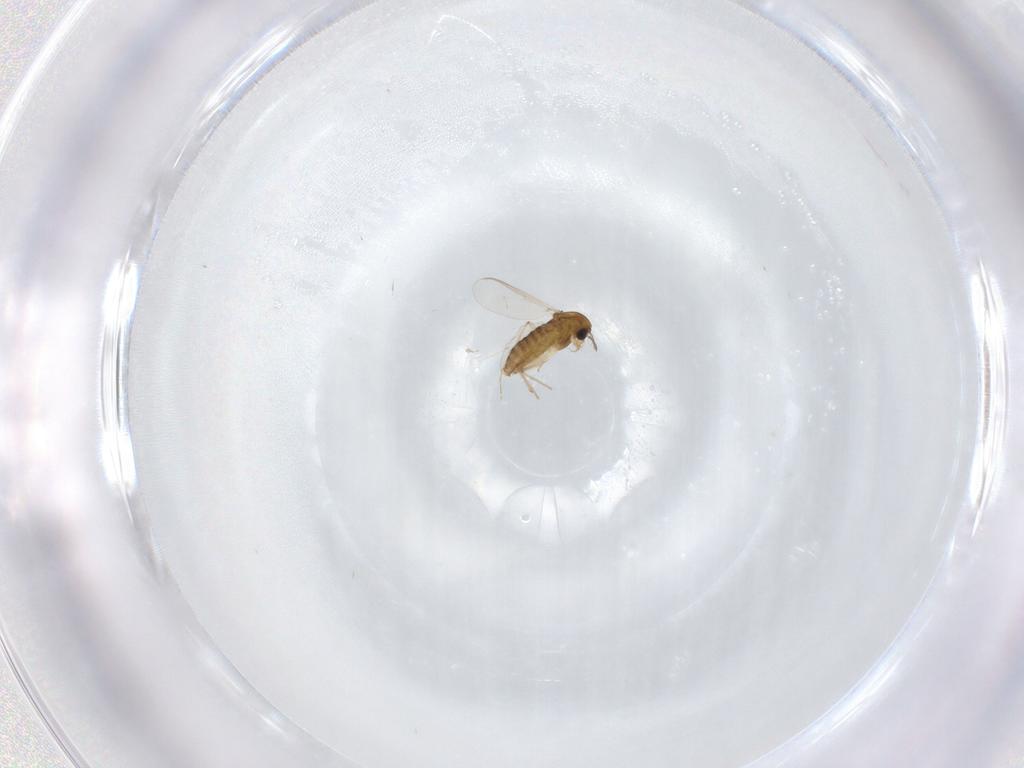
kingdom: Animalia
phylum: Arthropoda
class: Insecta
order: Diptera
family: Chironomidae
